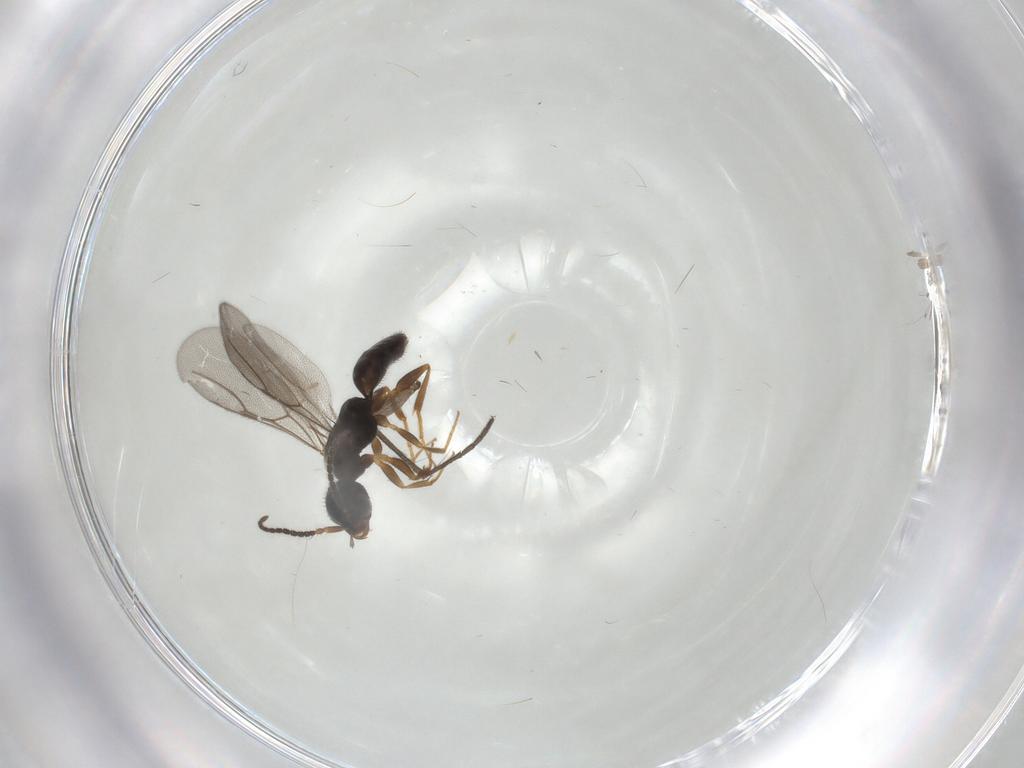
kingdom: Animalia
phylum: Arthropoda
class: Insecta
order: Hymenoptera
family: Bethylidae
